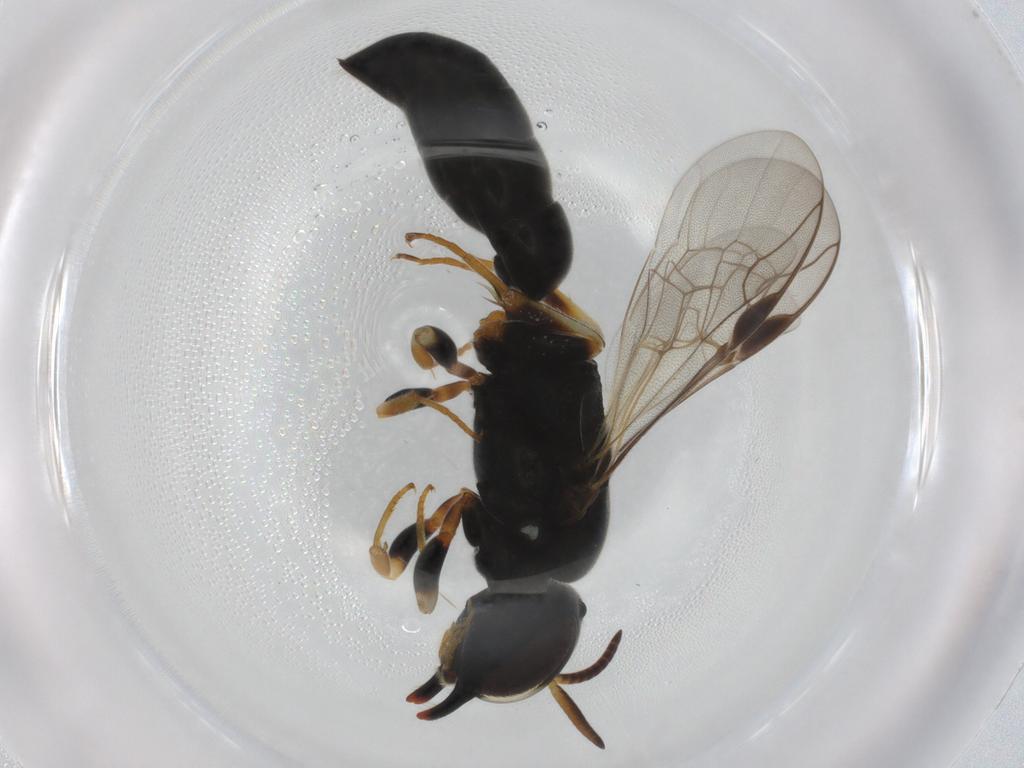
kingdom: Animalia
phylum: Arthropoda
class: Insecta
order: Hymenoptera
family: Pemphredonidae
